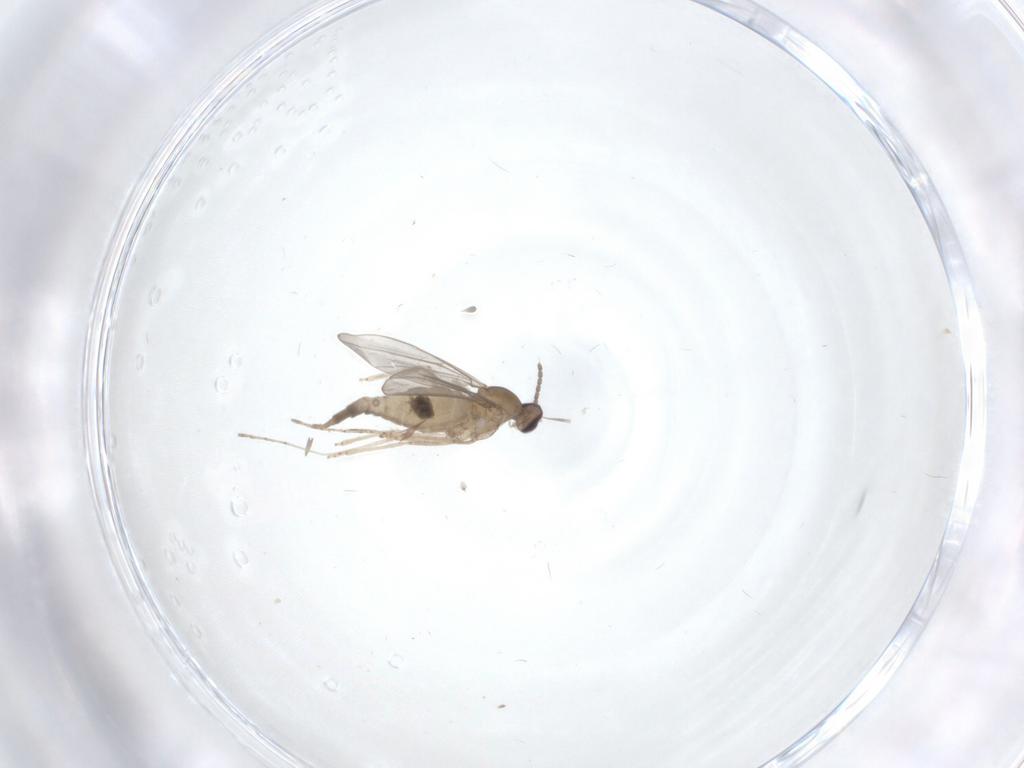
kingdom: Animalia
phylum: Arthropoda
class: Insecta
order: Diptera
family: Cecidomyiidae
